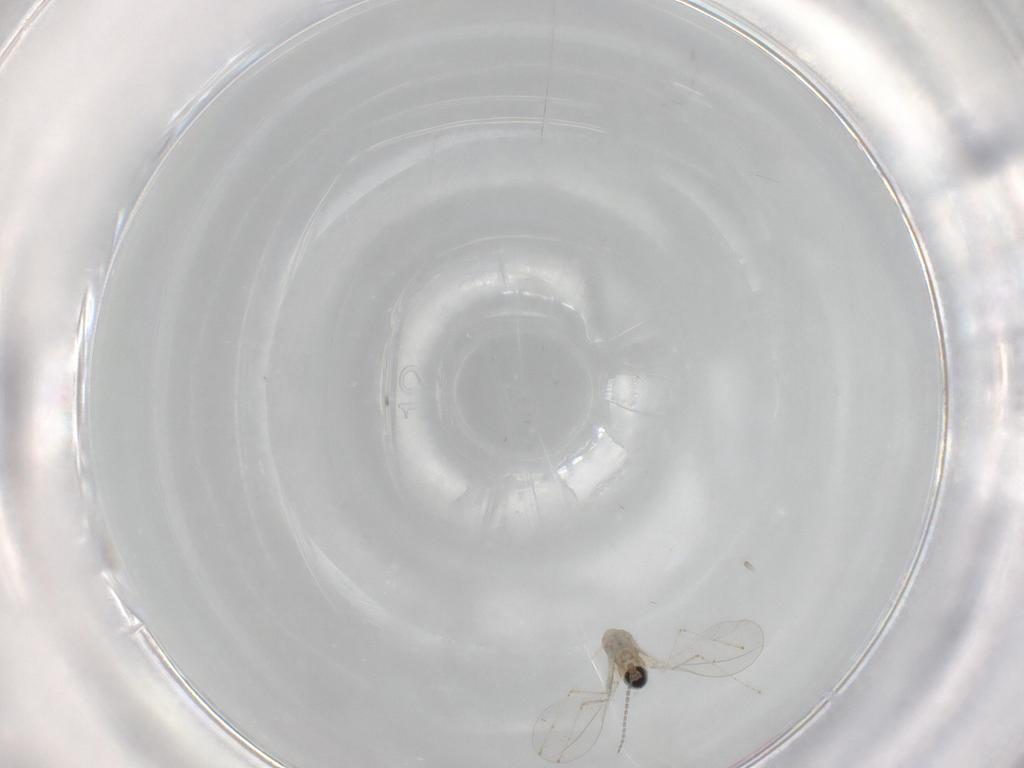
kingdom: Animalia
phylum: Arthropoda
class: Insecta
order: Diptera
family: Cecidomyiidae
